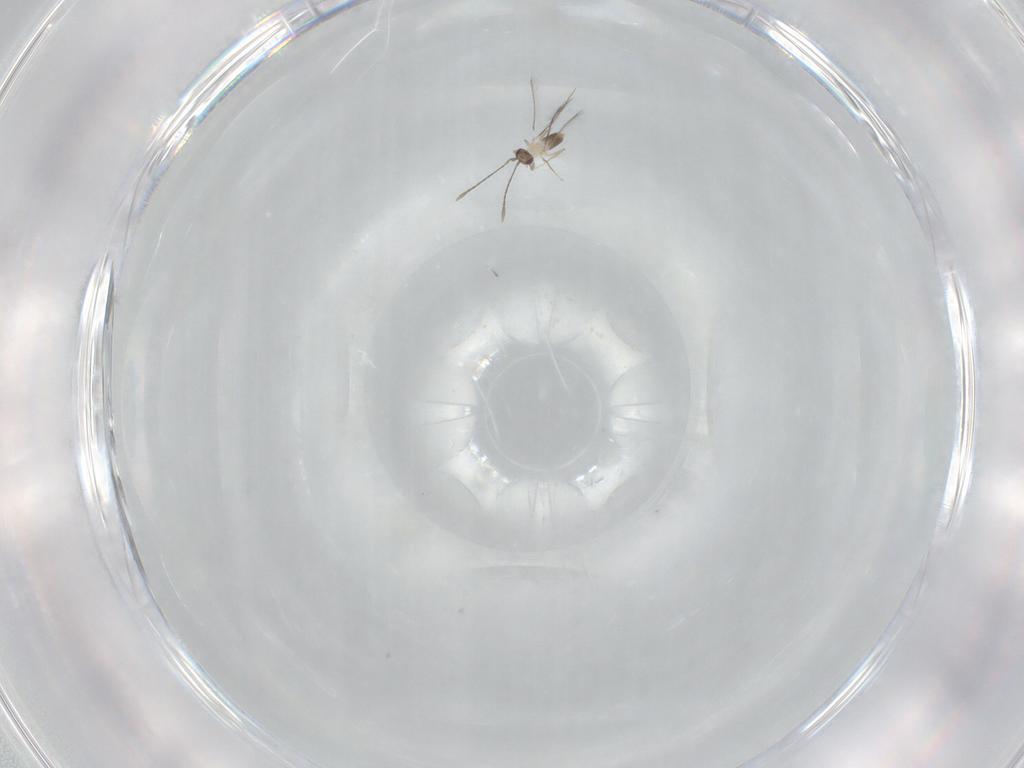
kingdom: Animalia
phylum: Arthropoda
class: Insecta
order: Hymenoptera
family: Mymaridae
